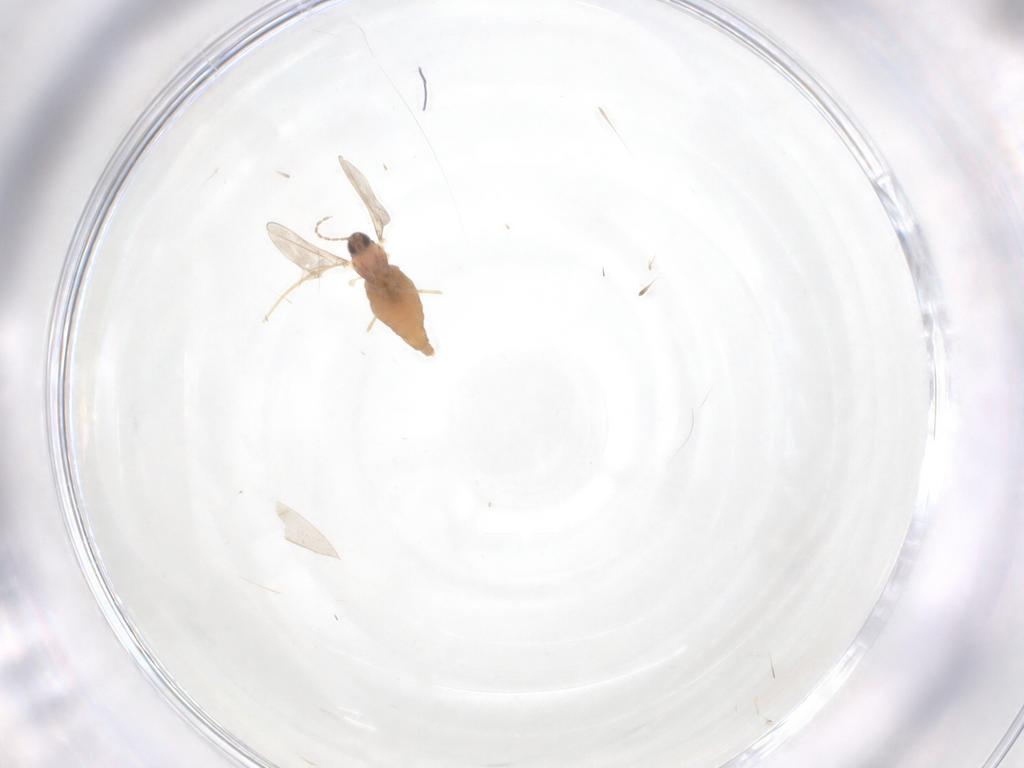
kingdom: Animalia
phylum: Arthropoda
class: Insecta
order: Diptera
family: Cecidomyiidae
